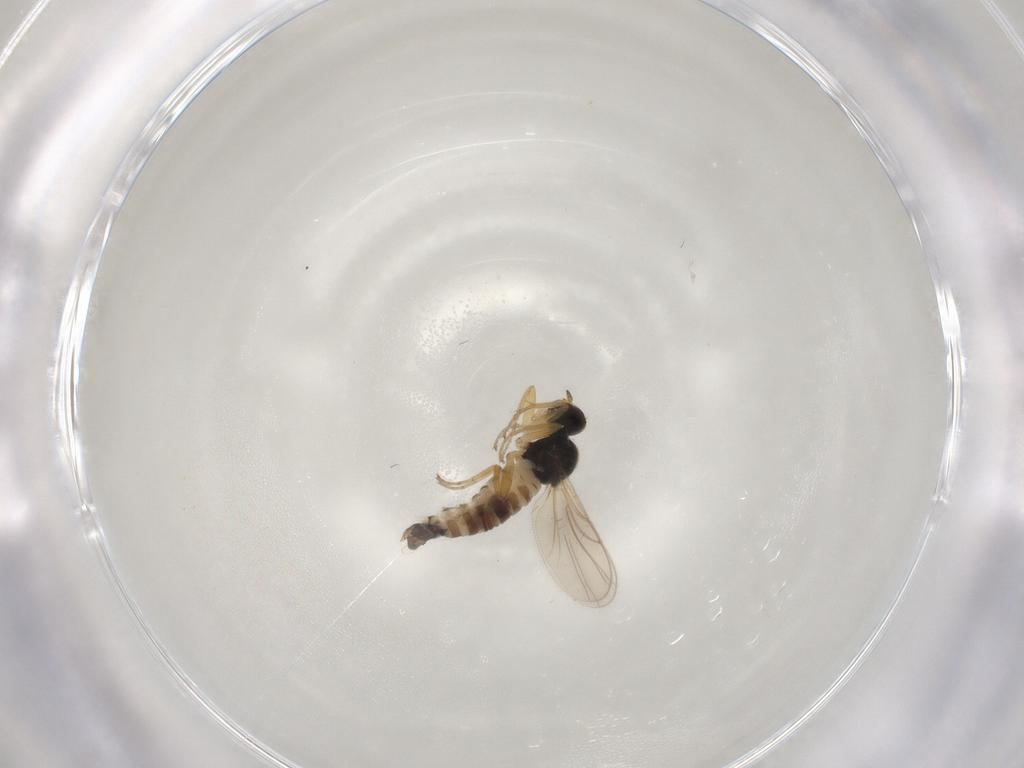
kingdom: Animalia
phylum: Arthropoda
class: Insecta
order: Diptera
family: Hybotidae
